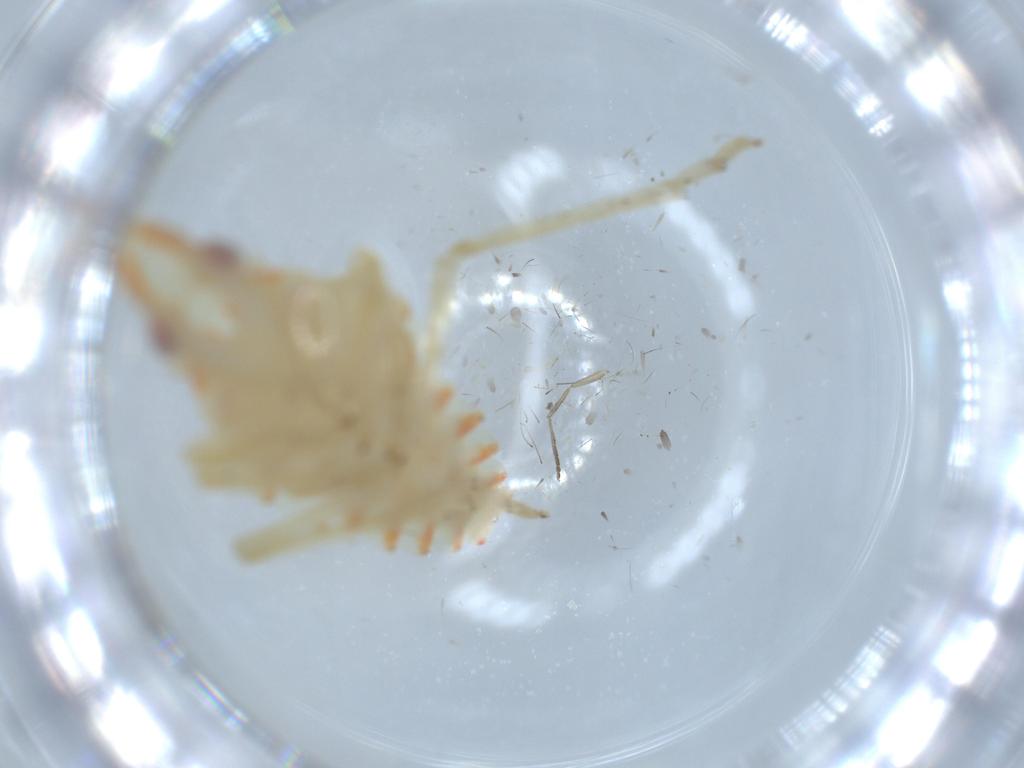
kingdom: Animalia
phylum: Arthropoda
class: Insecta
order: Hemiptera
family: Tropiduchidae
